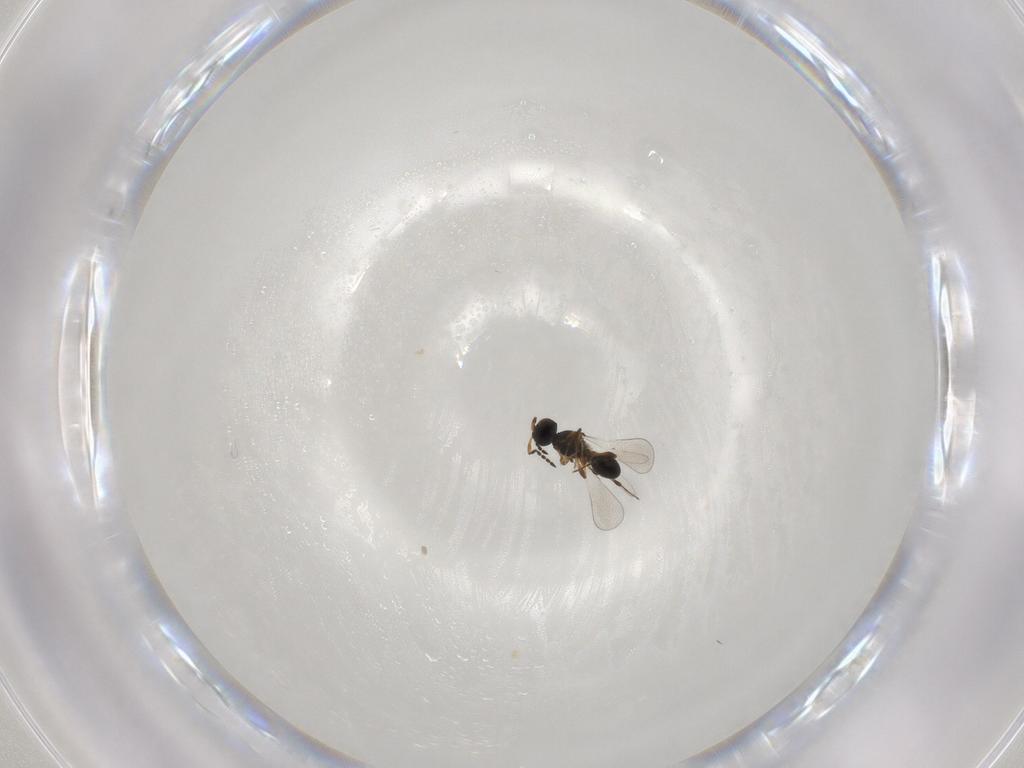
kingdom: Animalia
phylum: Arthropoda
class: Insecta
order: Hymenoptera
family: Platygastridae
